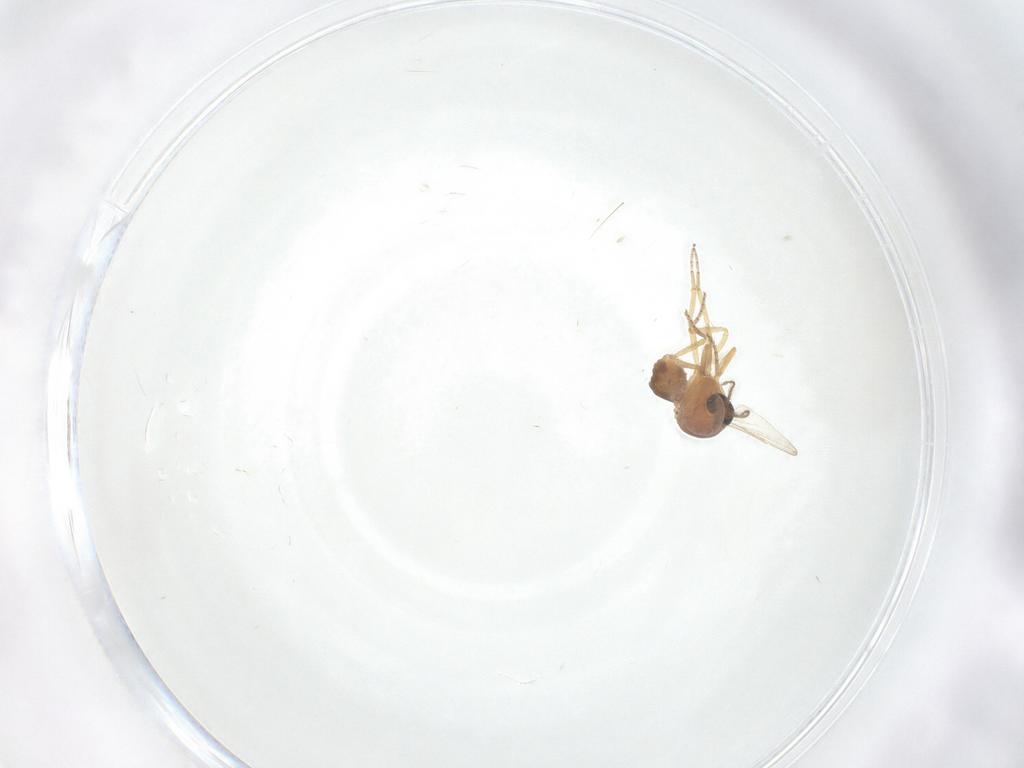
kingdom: Animalia
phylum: Arthropoda
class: Insecta
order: Diptera
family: Ceratopogonidae
